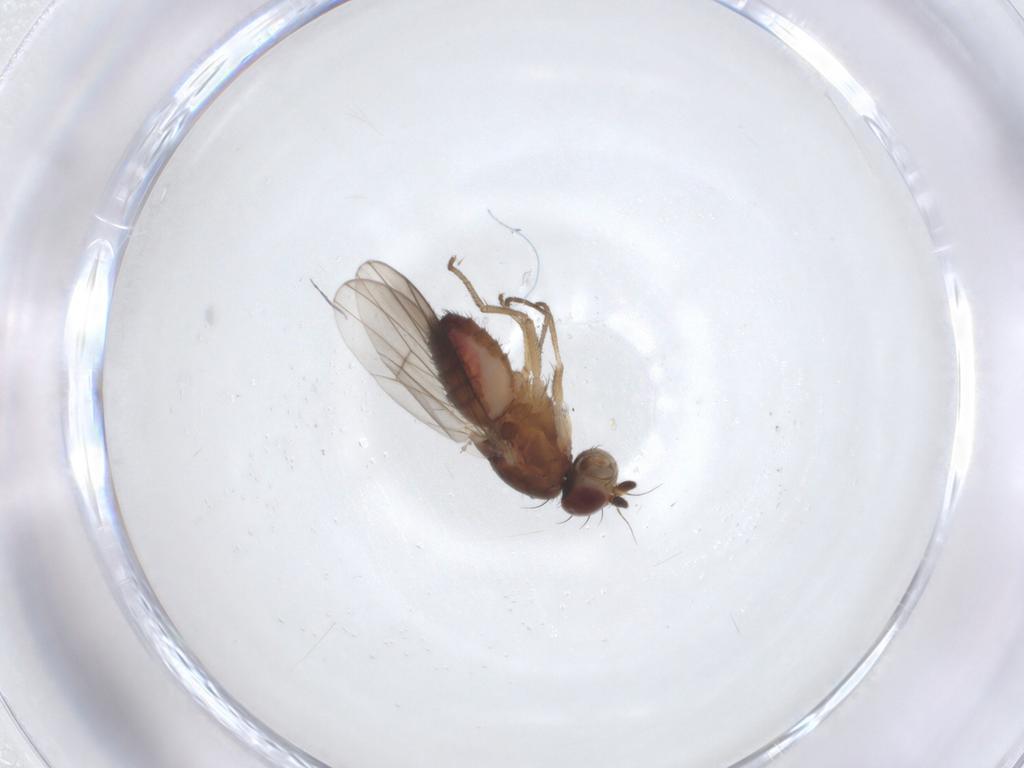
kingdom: Animalia
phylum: Arthropoda
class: Insecta
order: Diptera
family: Heleomyzidae
